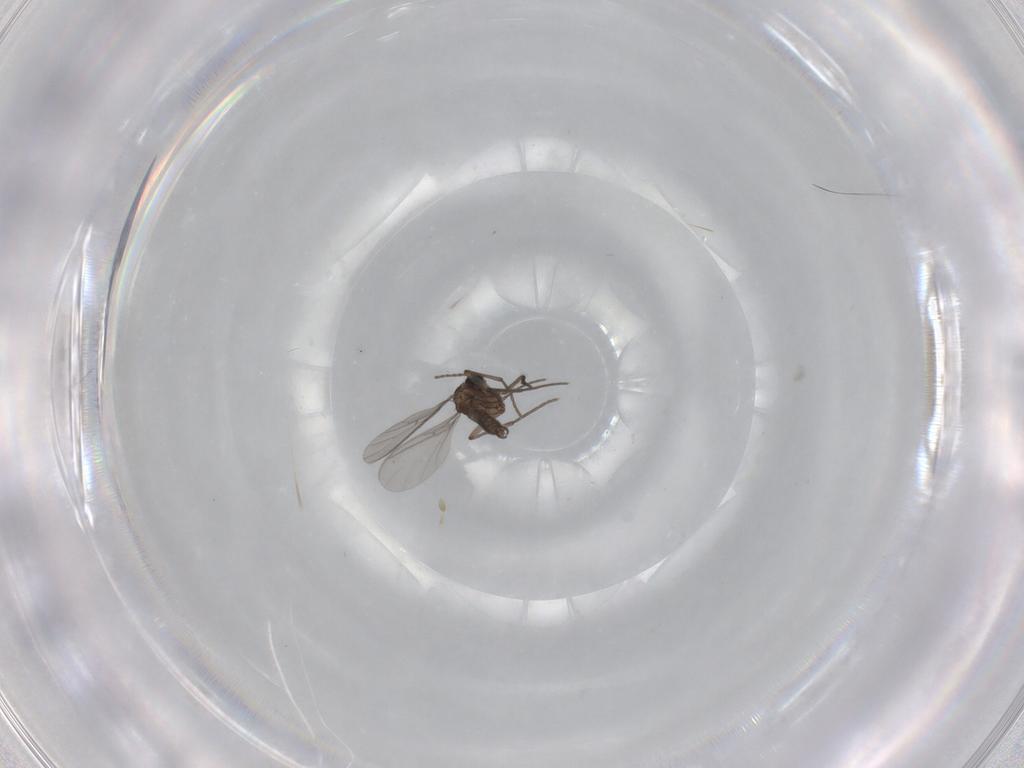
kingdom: Animalia
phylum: Arthropoda
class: Insecta
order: Diptera
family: Sciaridae
